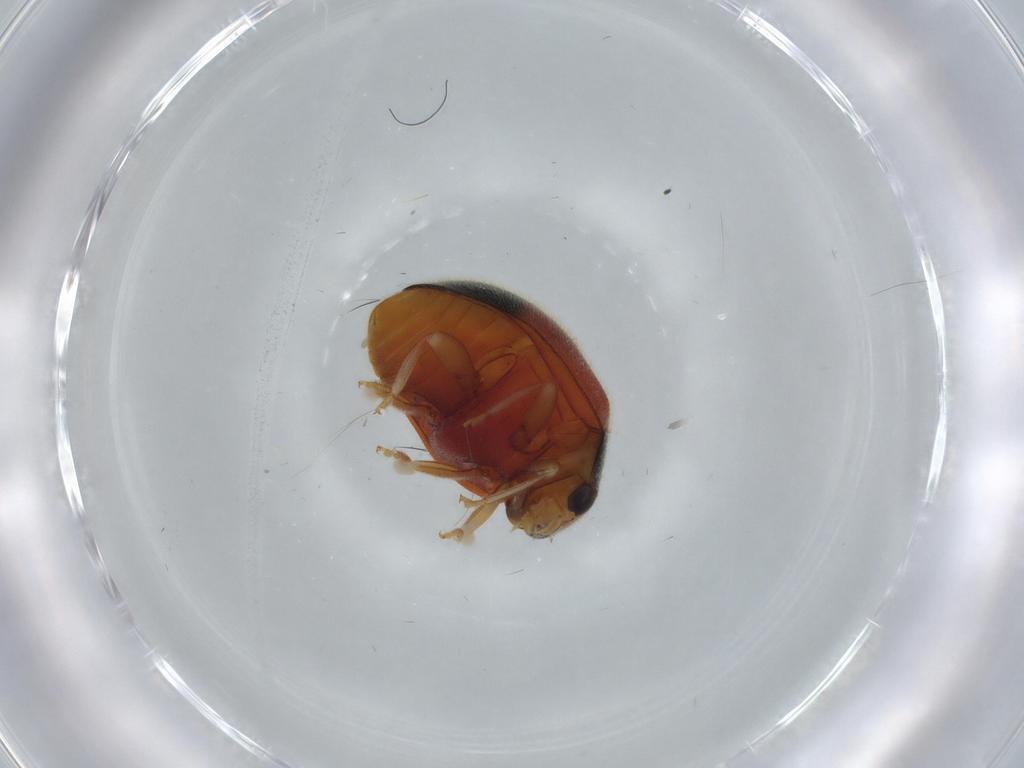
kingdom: Animalia
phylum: Arthropoda
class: Insecta
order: Coleoptera
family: Coccinellidae
